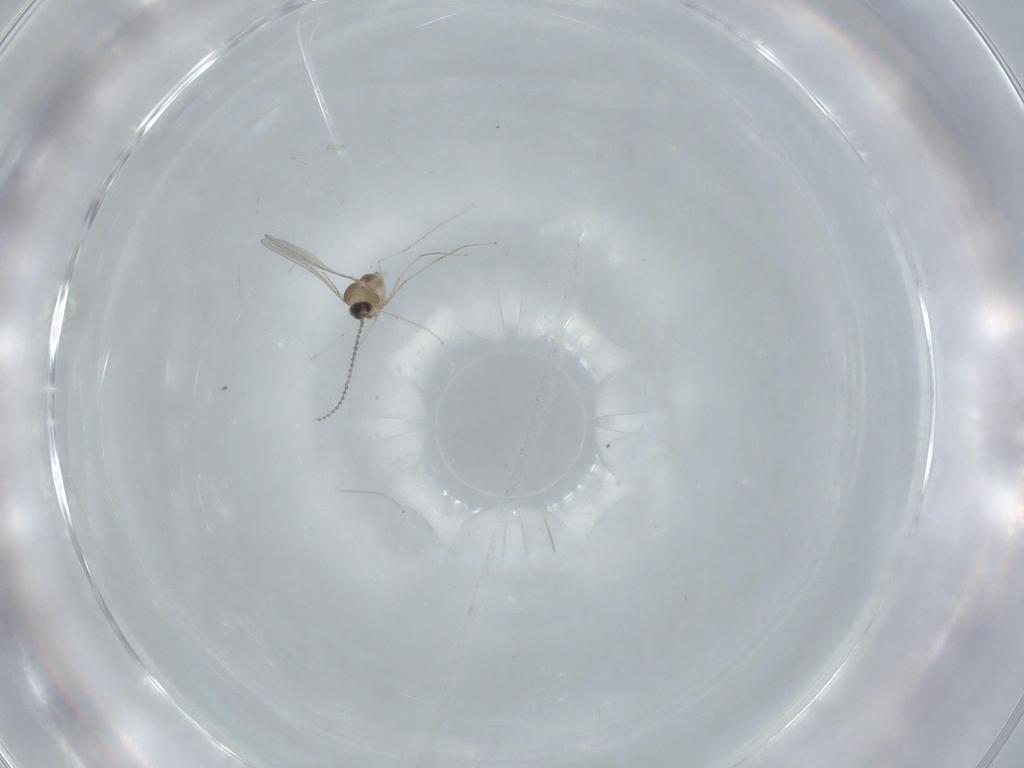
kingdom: Animalia
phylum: Arthropoda
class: Insecta
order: Diptera
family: Cecidomyiidae
